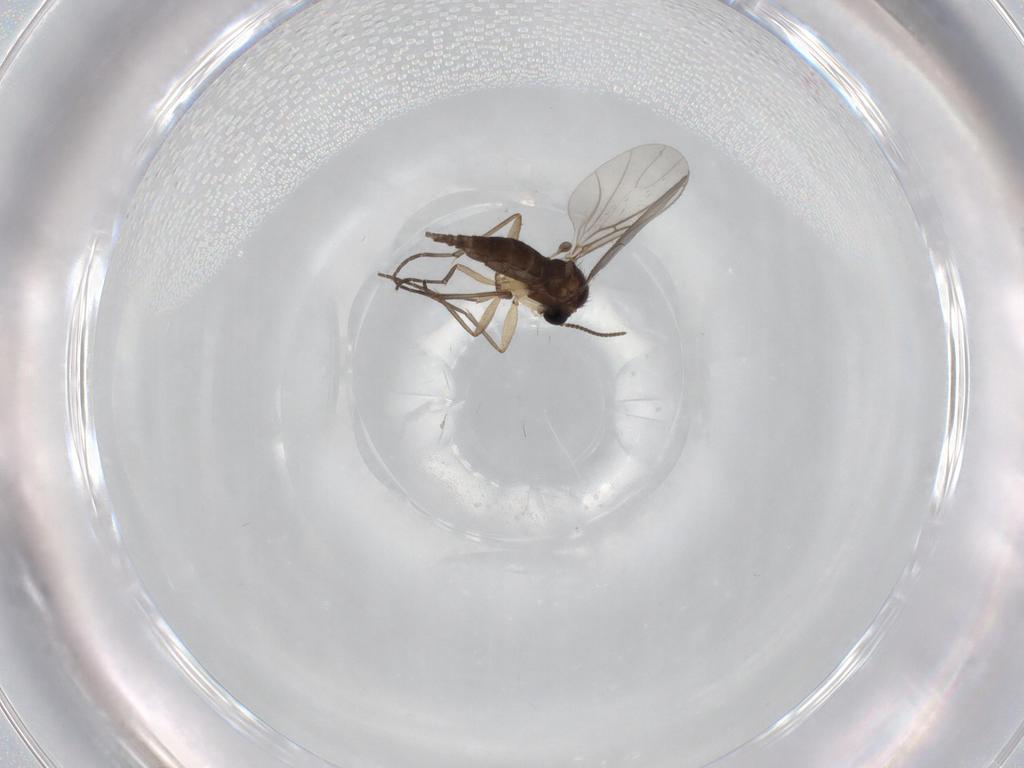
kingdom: Animalia
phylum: Arthropoda
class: Insecta
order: Diptera
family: Sciaridae
